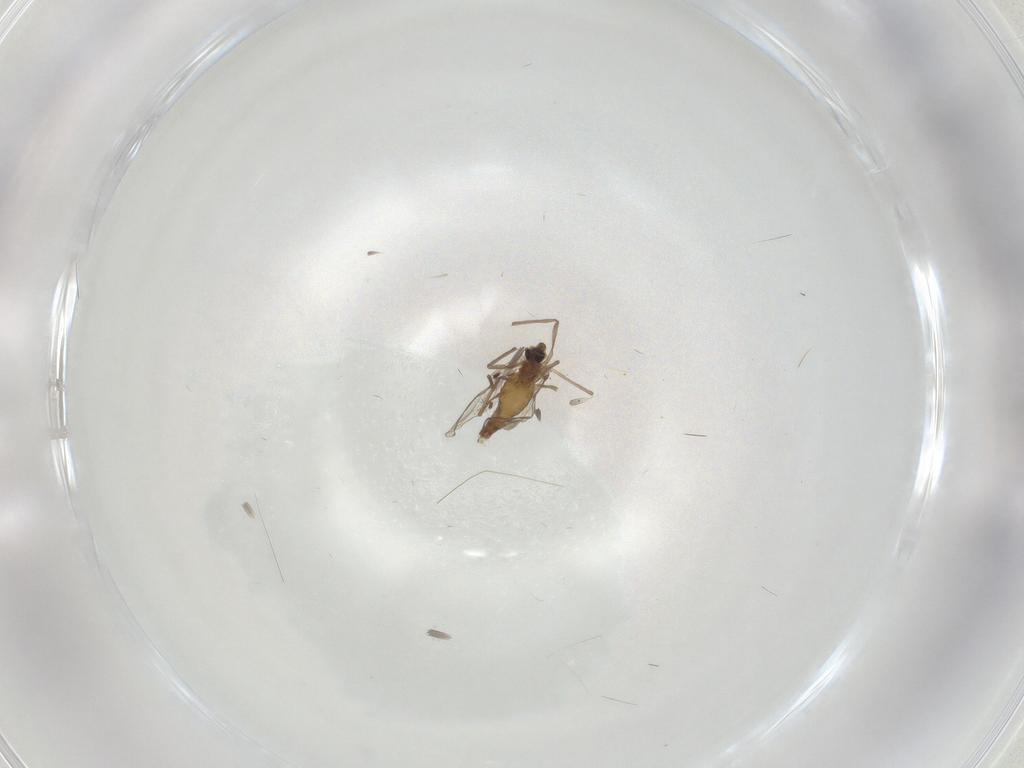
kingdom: Animalia
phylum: Arthropoda
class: Insecta
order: Diptera
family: Chironomidae
